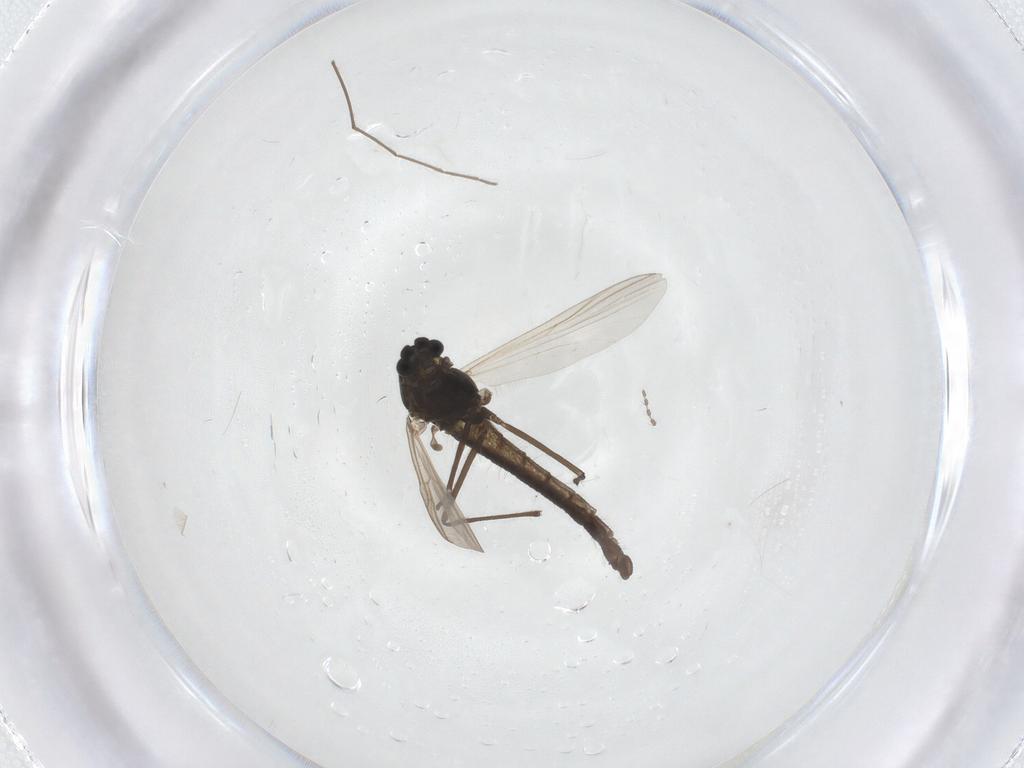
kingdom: Animalia
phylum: Arthropoda
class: Insecta
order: Diptera
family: Chironomidae
